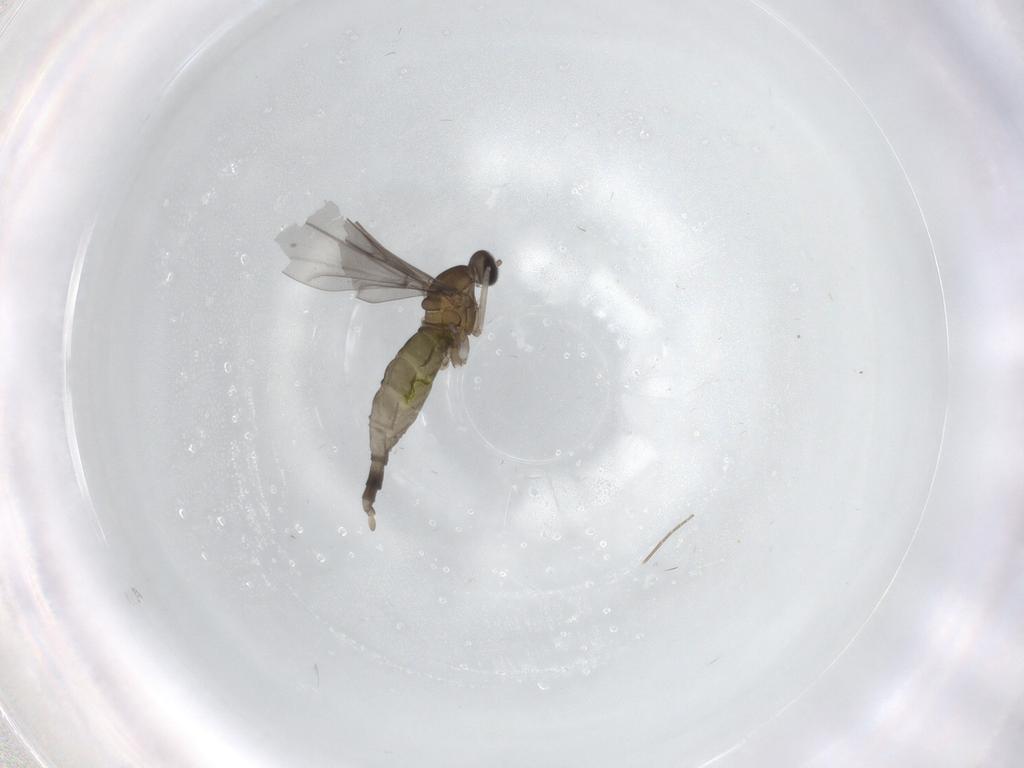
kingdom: Animalia
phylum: Arthropoda
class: Insecta
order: Diptera
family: Cecidomyiidae
